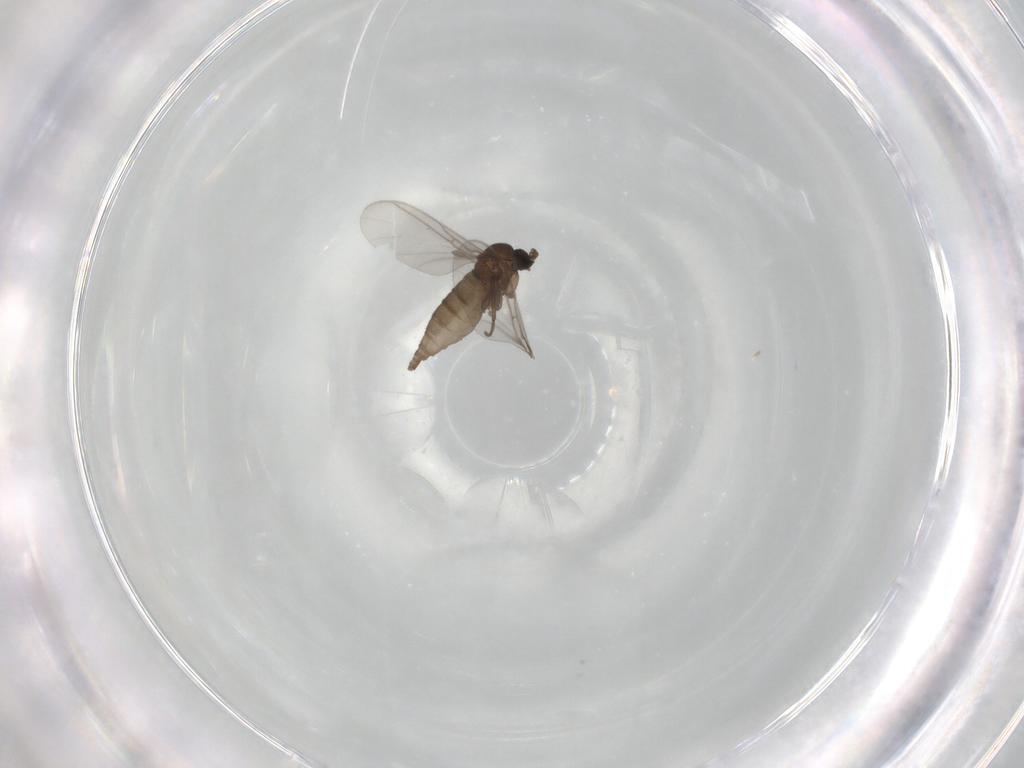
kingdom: Animalia
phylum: Arthropoda
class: Insecta
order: Diptera
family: Sciaridae
